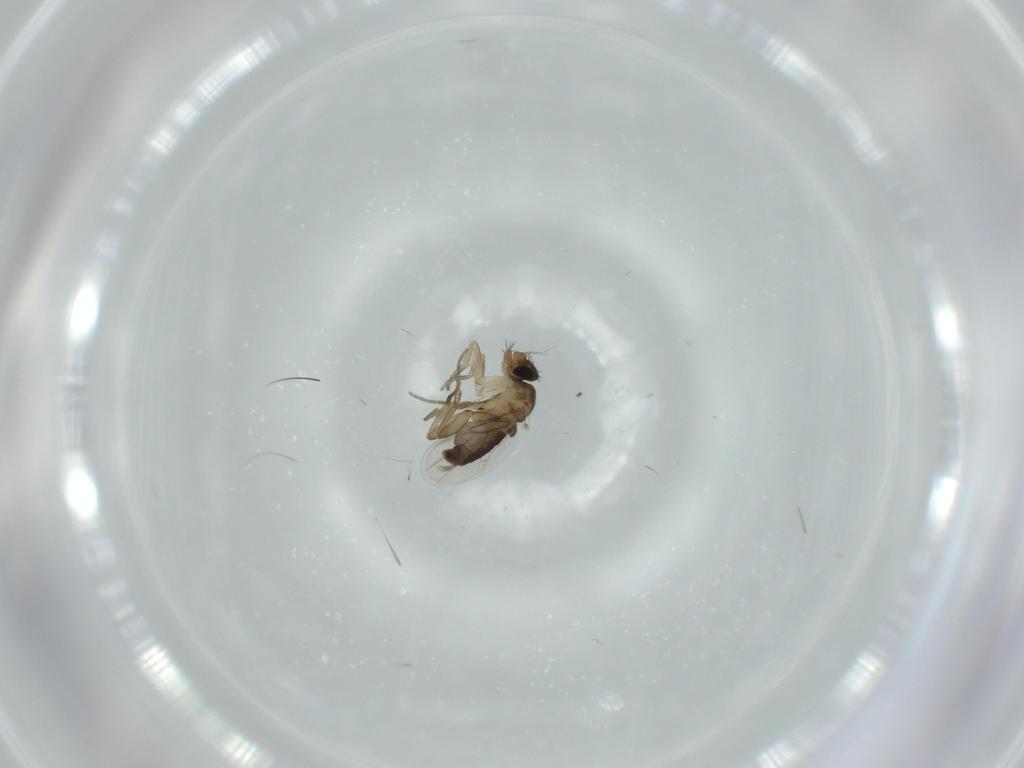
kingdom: Animalia
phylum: Arthropoda
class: Insecta
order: Diptera
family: Phoridae
